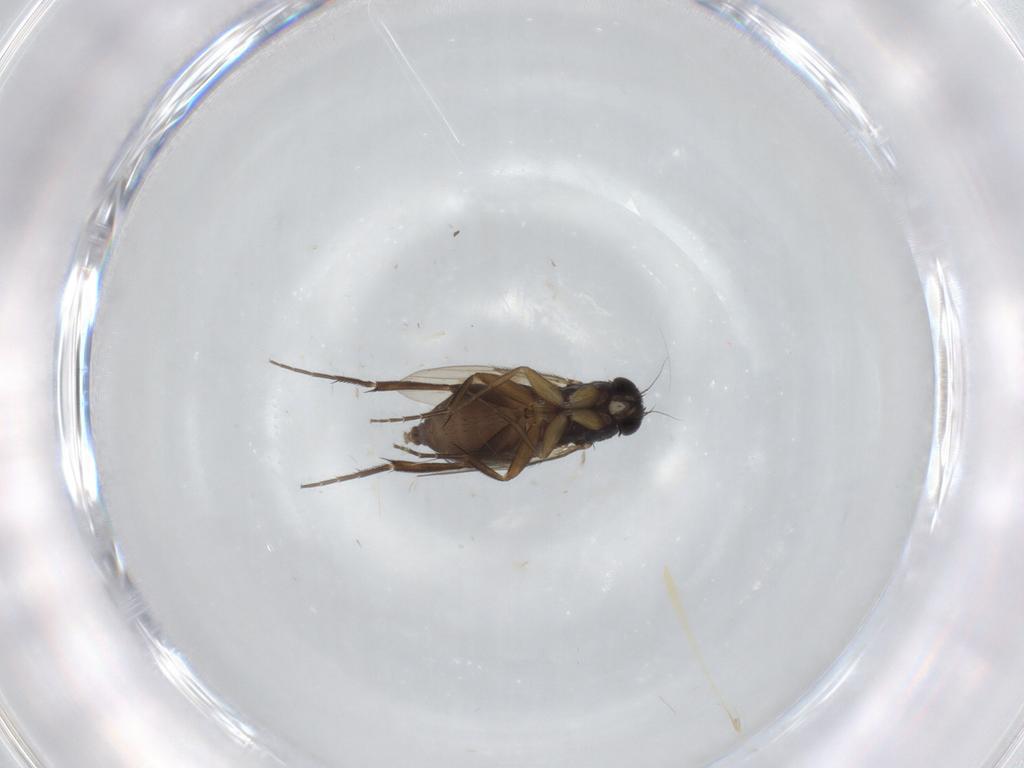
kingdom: Animalia
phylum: Arthropoda
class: Insecta
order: Diptera
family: Phoridae
